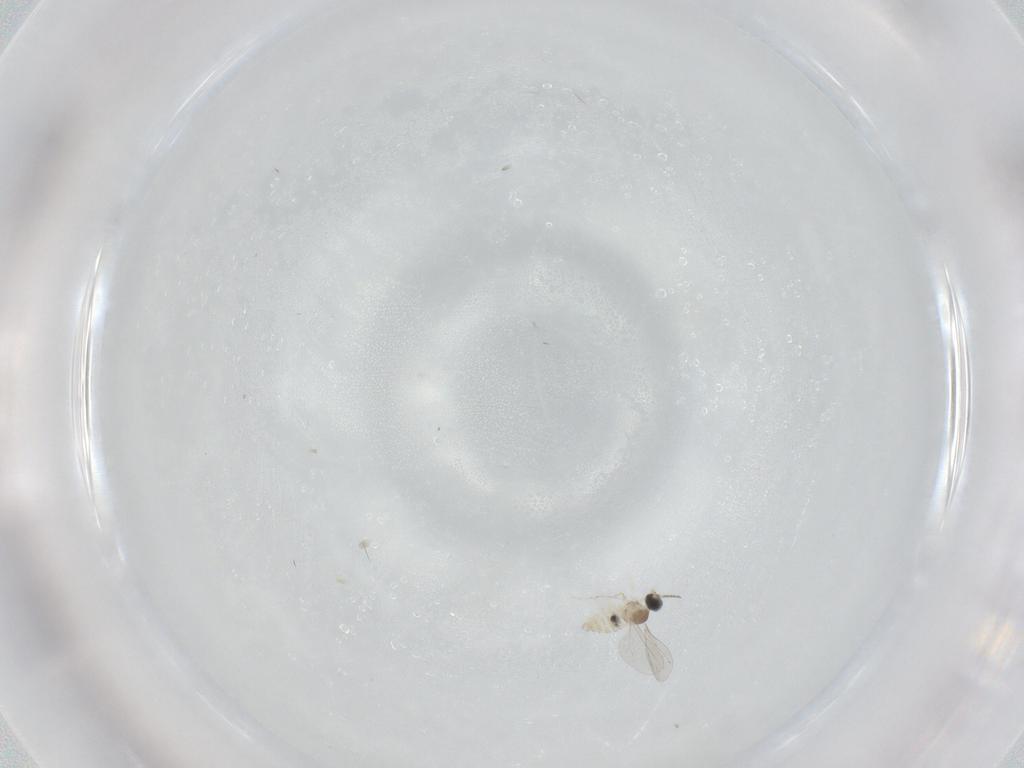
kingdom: Animalia
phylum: Arthropoda
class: Insecta
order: Diptera
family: Cecidomyiidae
